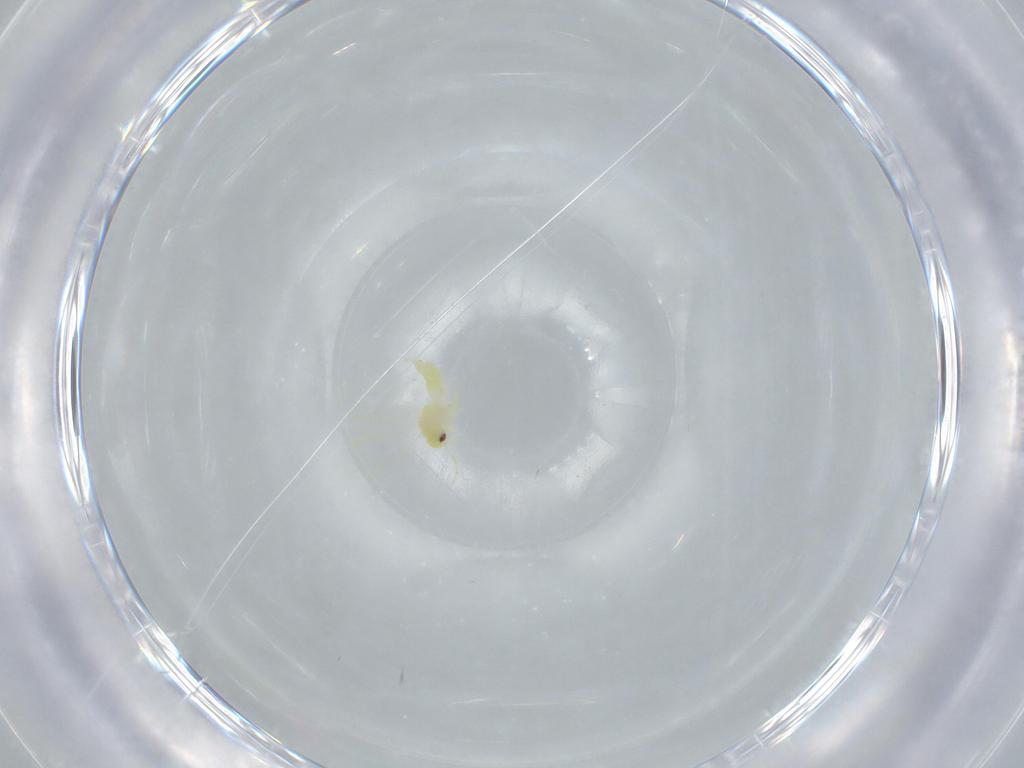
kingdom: Animalia
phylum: Arthropoda
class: Insecta
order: Hemiptera
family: Aleyrodidae
